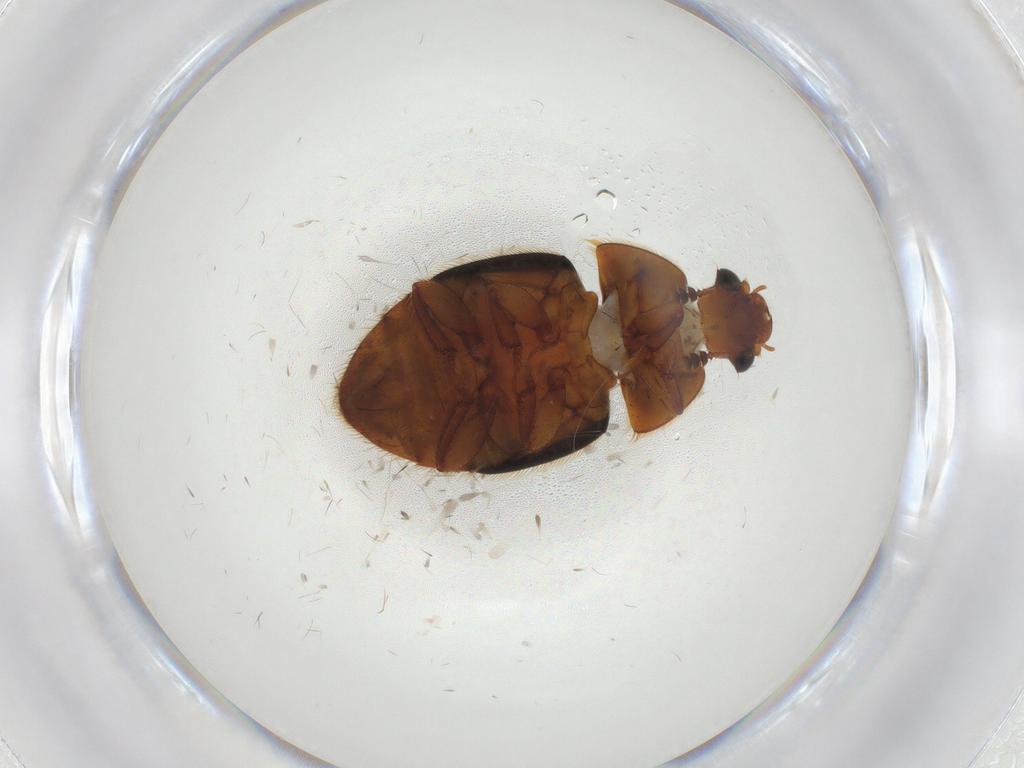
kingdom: Animalia
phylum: Arthropoda
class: Insecta
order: Coleoptera
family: Nitidulidae
